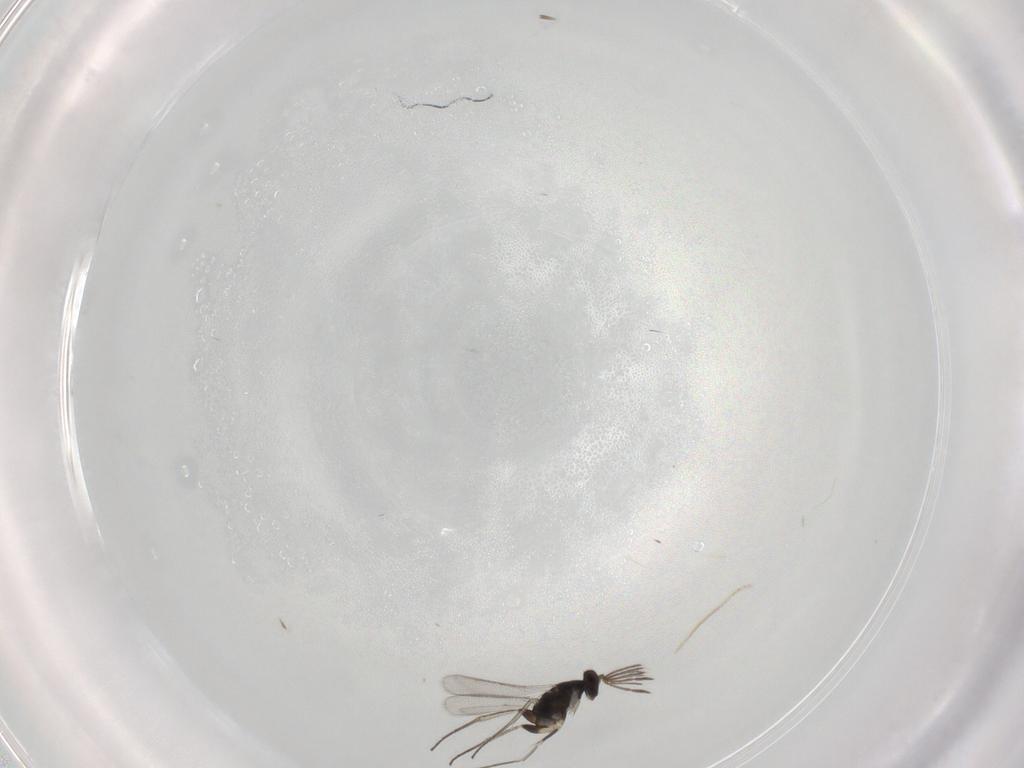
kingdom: Animalia
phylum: Arthropoda
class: Insecta
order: Hymenoptera
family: Eulophidae
